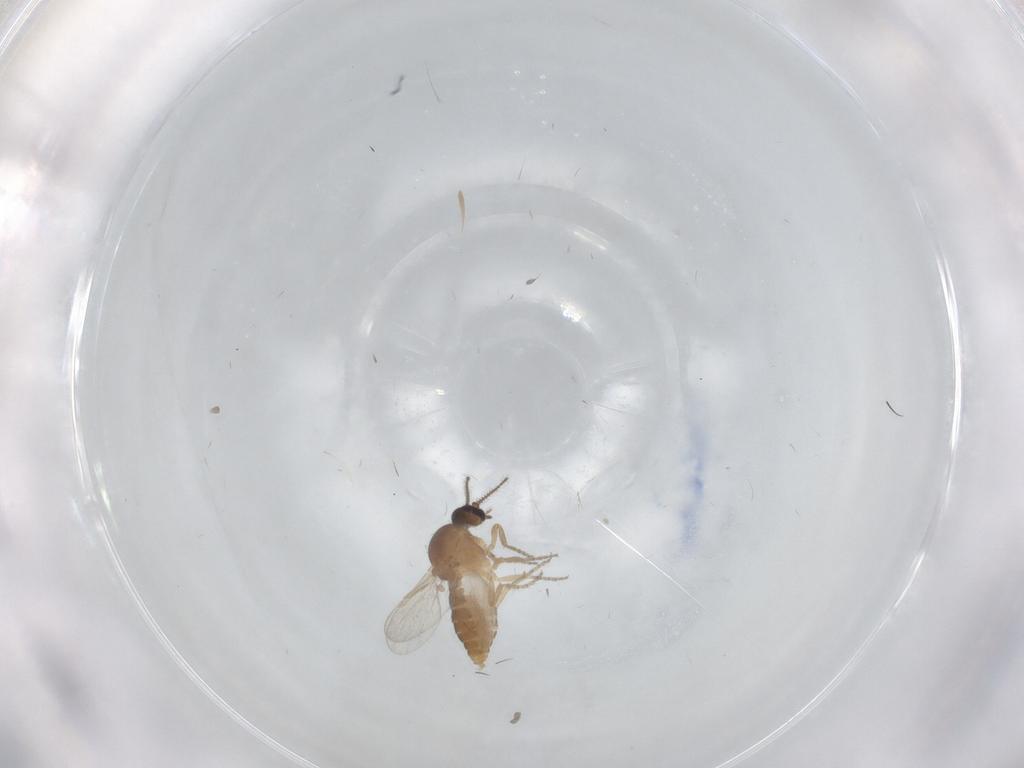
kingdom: Animalia
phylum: Arthropoda
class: Insecta
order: Diptera
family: Ceratopogonidae
